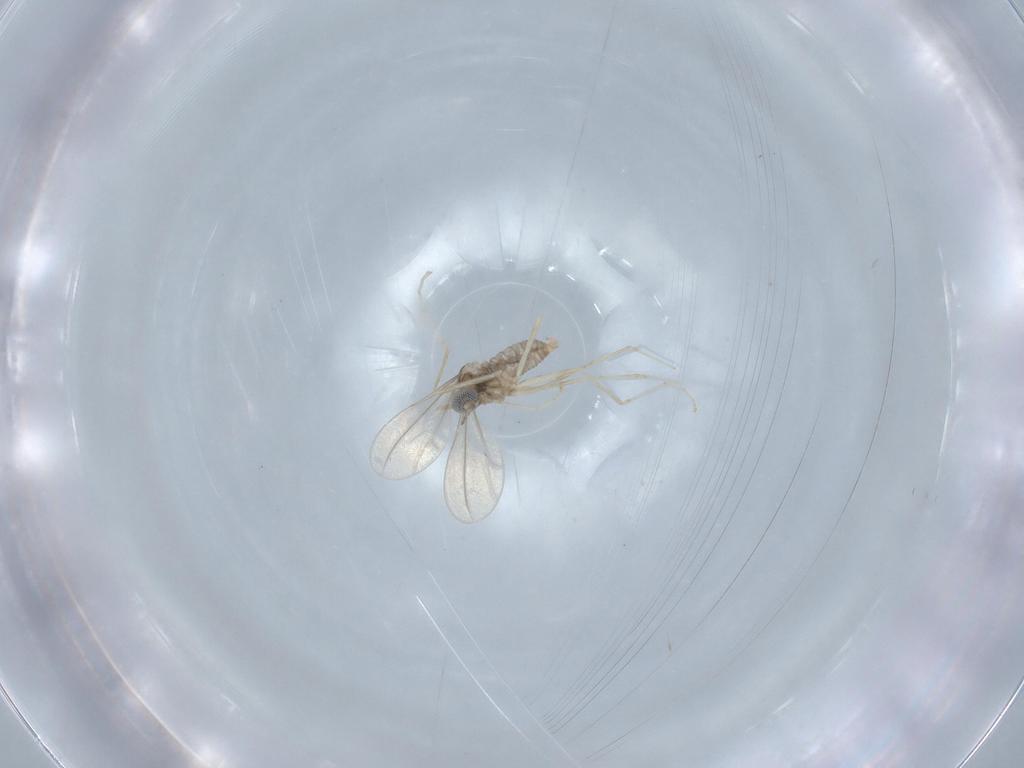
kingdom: Animalia
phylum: Arthropoda
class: Insecta
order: Diptera
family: Cecidomyiidae
